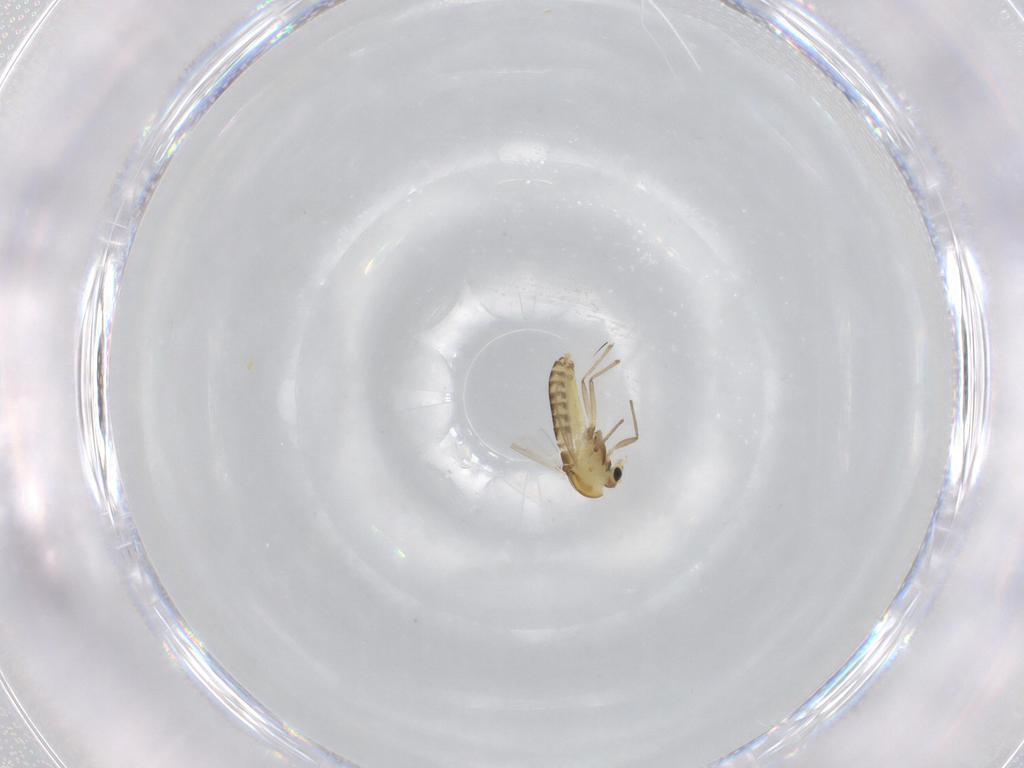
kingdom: Animalia
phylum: Arthropoda
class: Insecta
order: Diptera
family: Chironomidae
